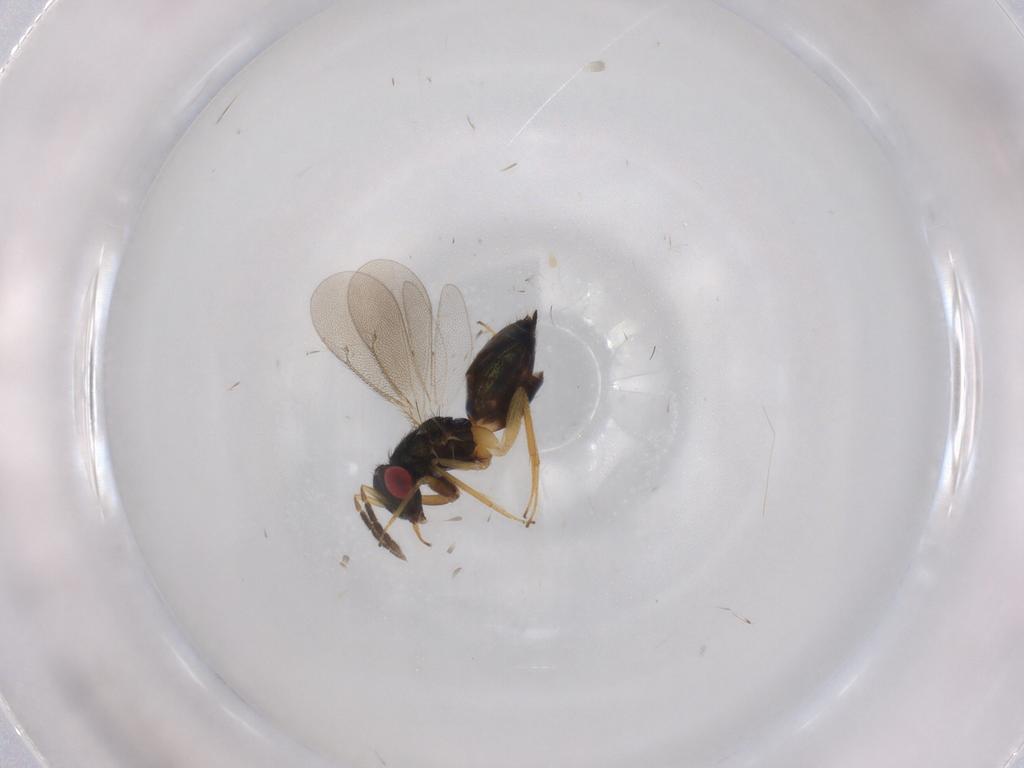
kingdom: Animalia
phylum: Arthropoda
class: Insecta
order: Hymenoptera
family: Eulophidae
